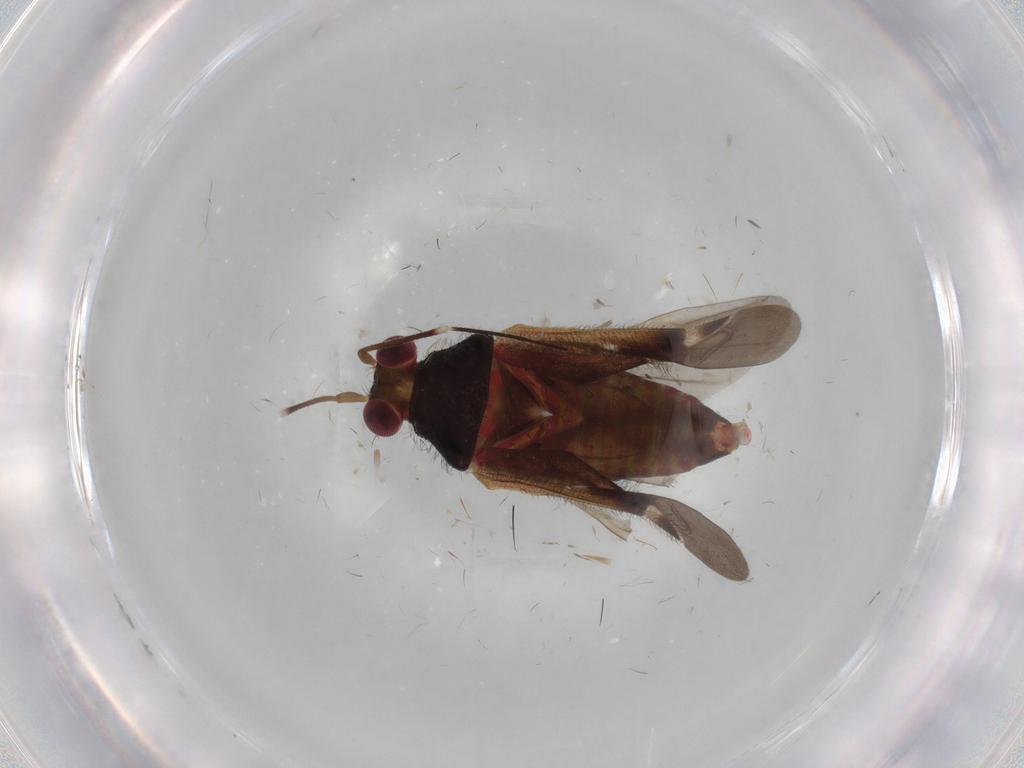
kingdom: Animalia
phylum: Arthropoda
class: Insecta
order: Hemiptera
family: Miridae
